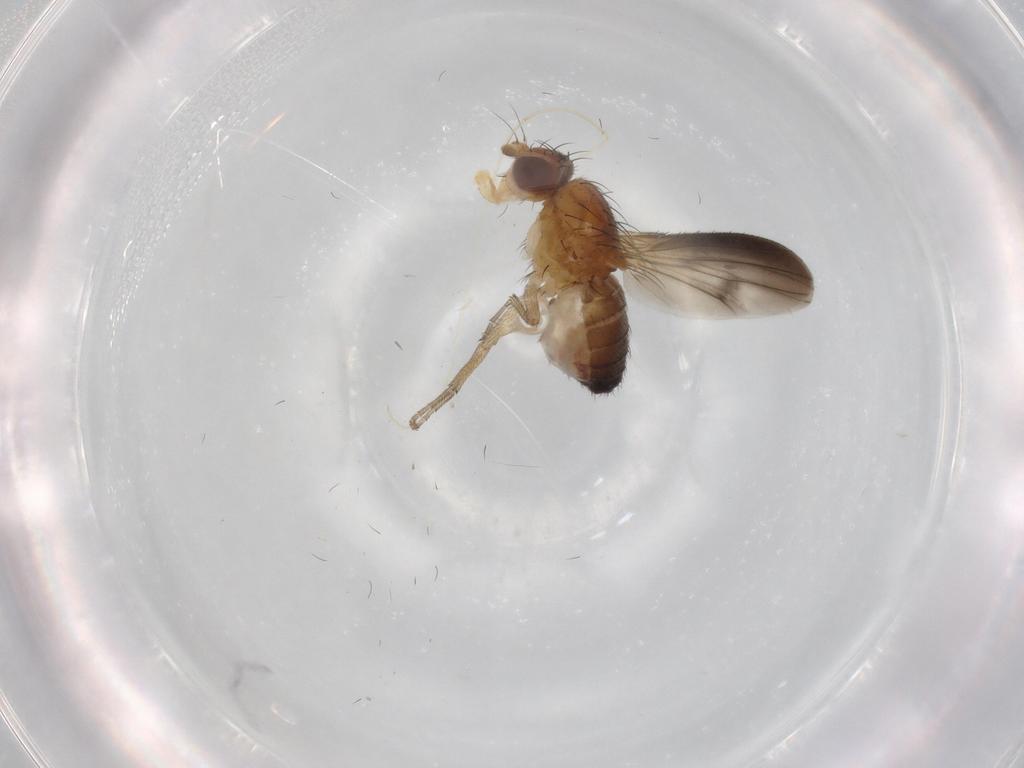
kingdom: Animalia
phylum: Arthropoda
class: Insecta
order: Diptera
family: Heleomyzidae
